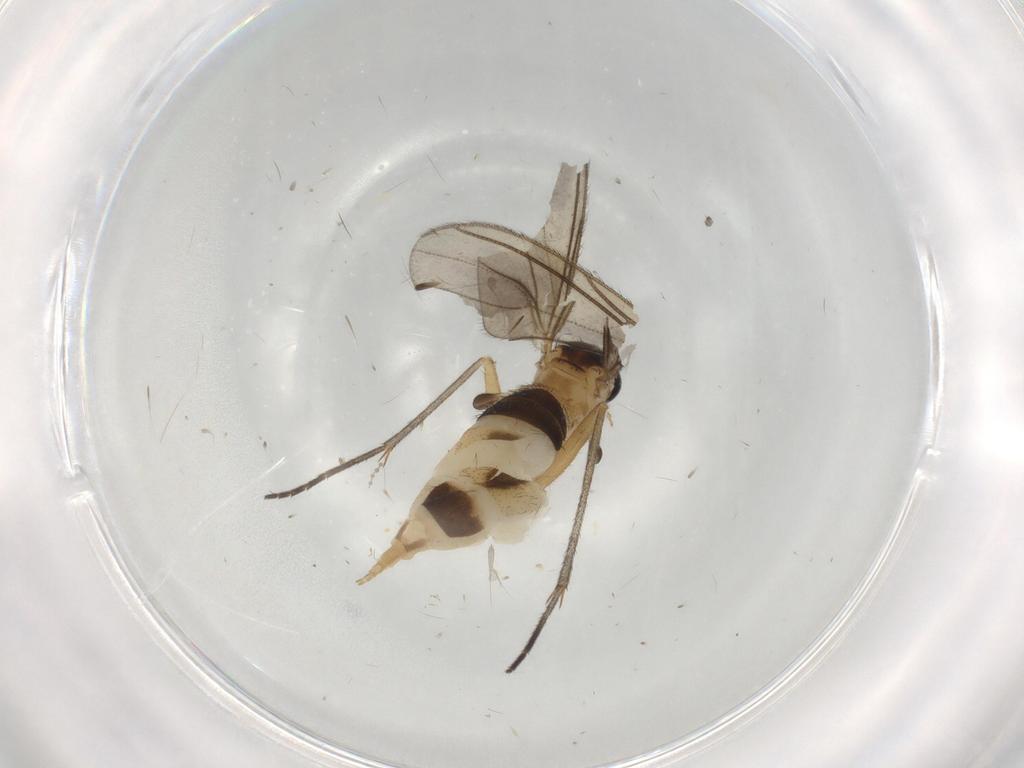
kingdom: Animalia
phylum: Arthropoda
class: Insecta
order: Diptera
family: Sciaridae
